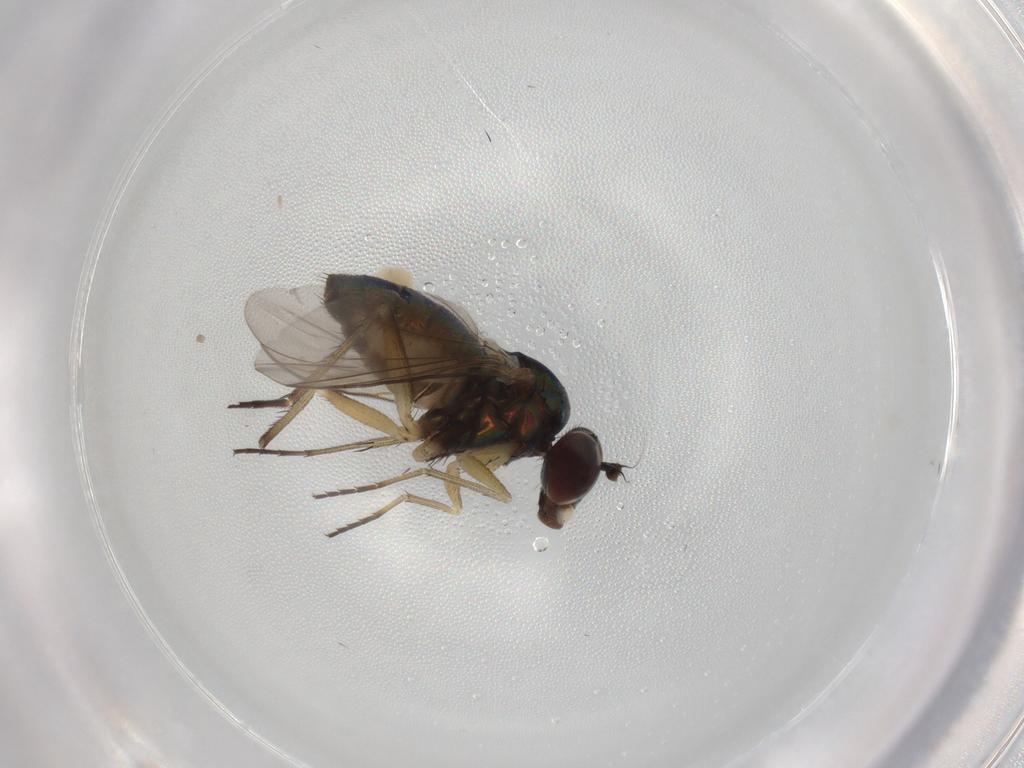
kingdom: Animalia
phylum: Arthropoda
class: Insecta
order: Diptera
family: Dolichopodidae
